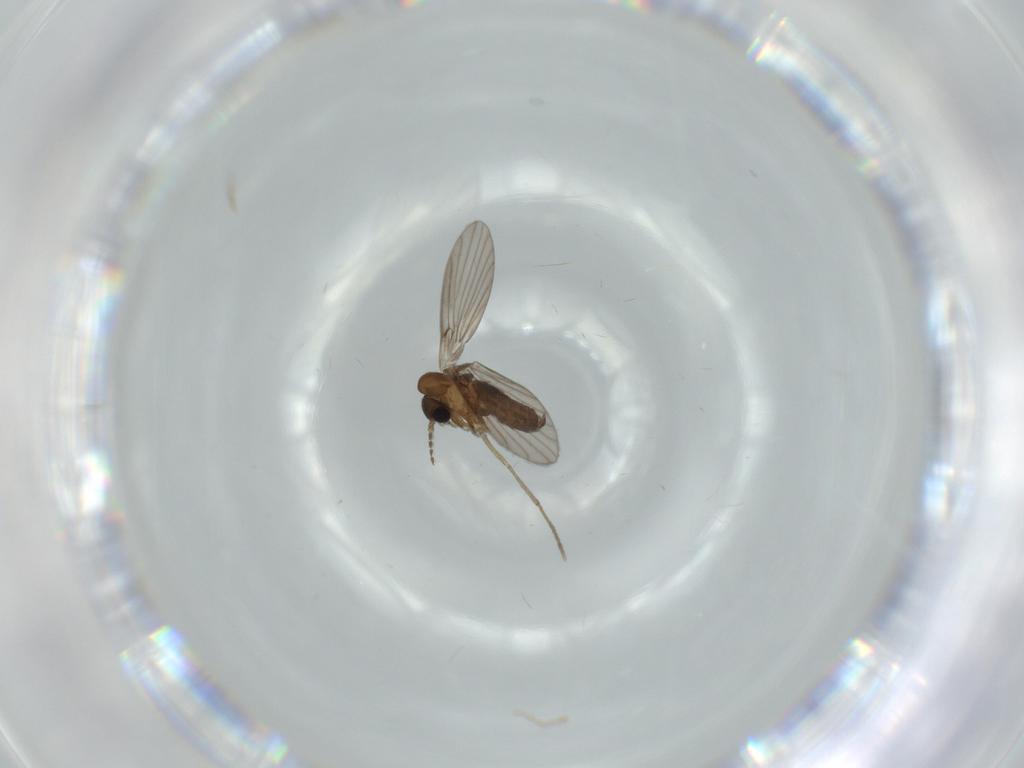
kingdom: Animalia
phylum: Arthropoda
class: Insecta
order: Diptera
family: Psychodidae
